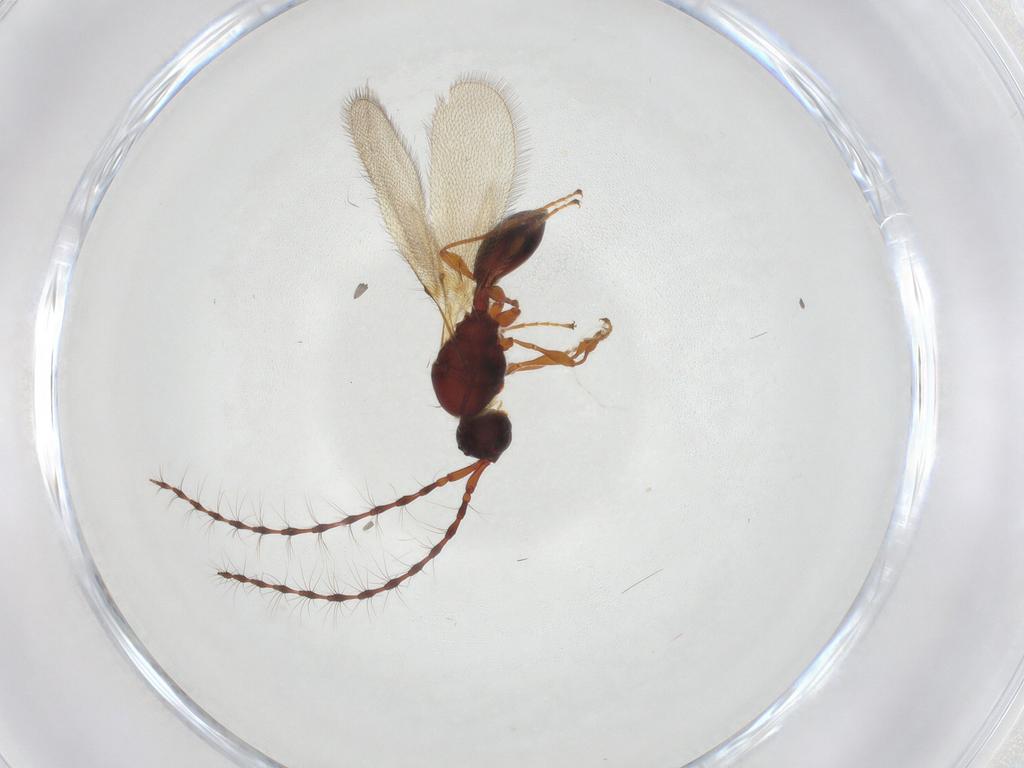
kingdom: Animalia
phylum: Arthropoda
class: Insecta
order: Hymenoptera
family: Diapriidae
